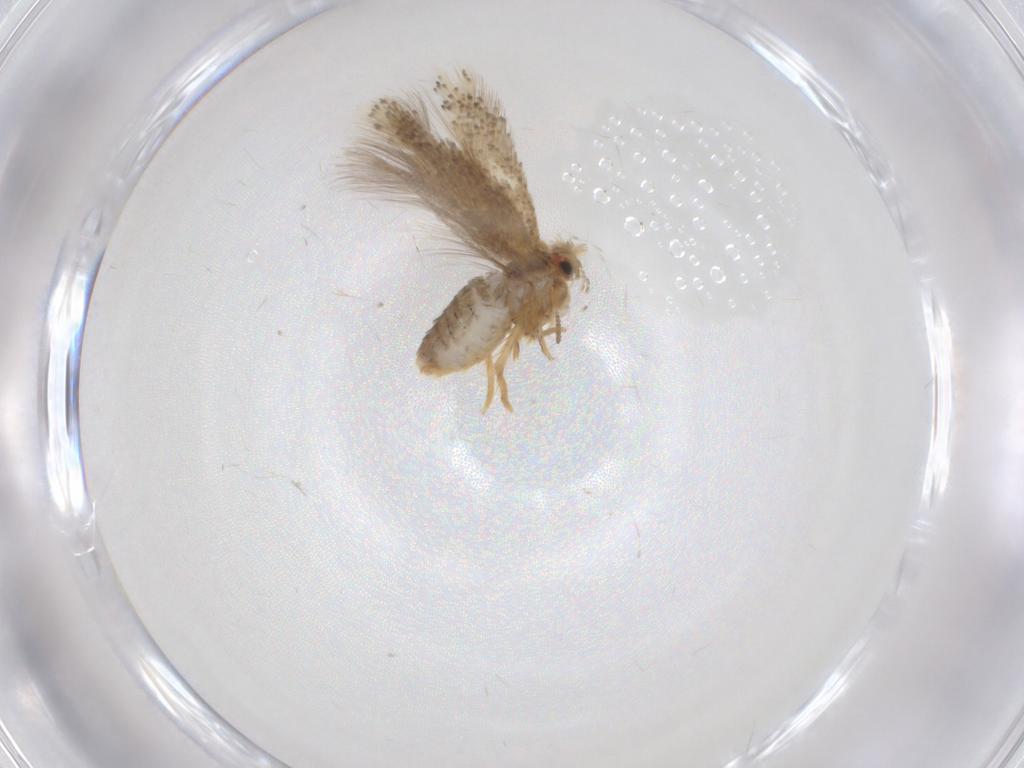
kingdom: Animalia
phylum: Arthropoda
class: Insecta
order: Lepidoptera
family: Nepticulidae
